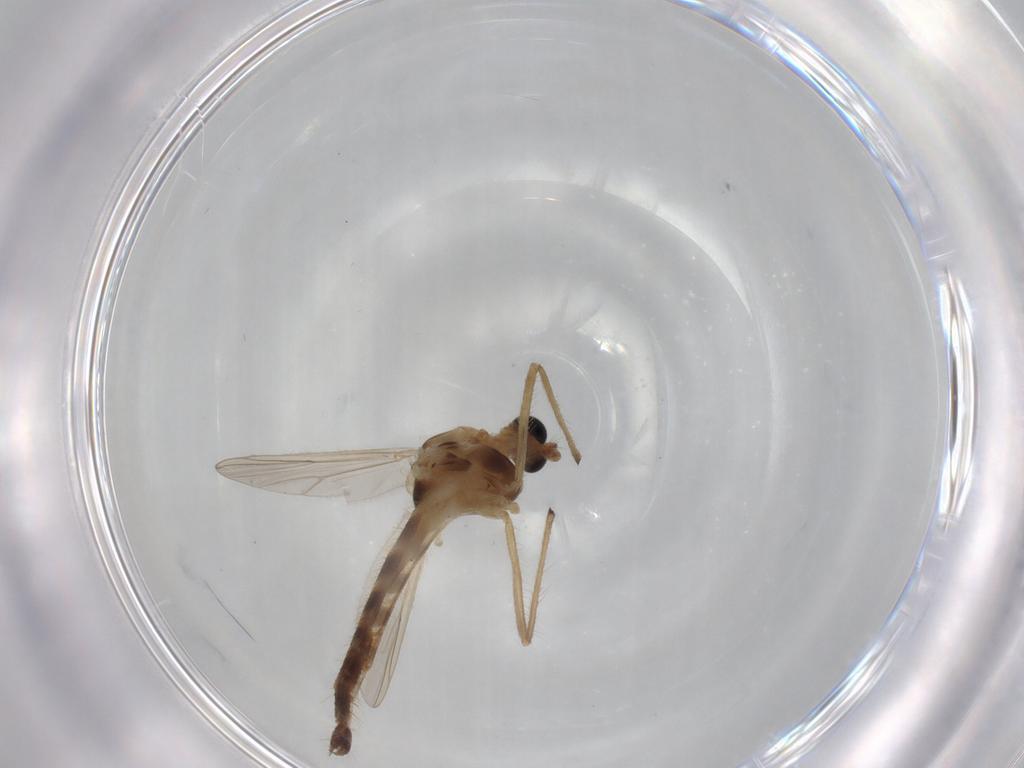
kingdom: Animalia
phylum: Arthropoda
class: Insecta
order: Diptera
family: Chironomidae
